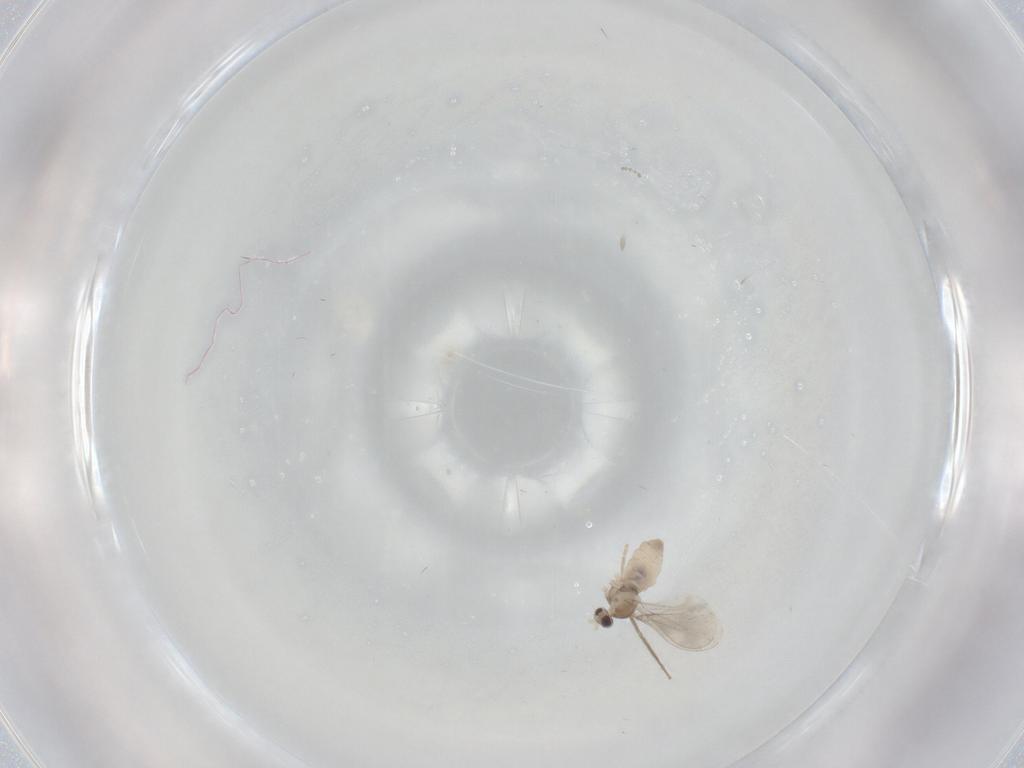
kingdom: Animalia
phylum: Arthropoda
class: Insecta
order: Diptera
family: Cecidomyiidae
